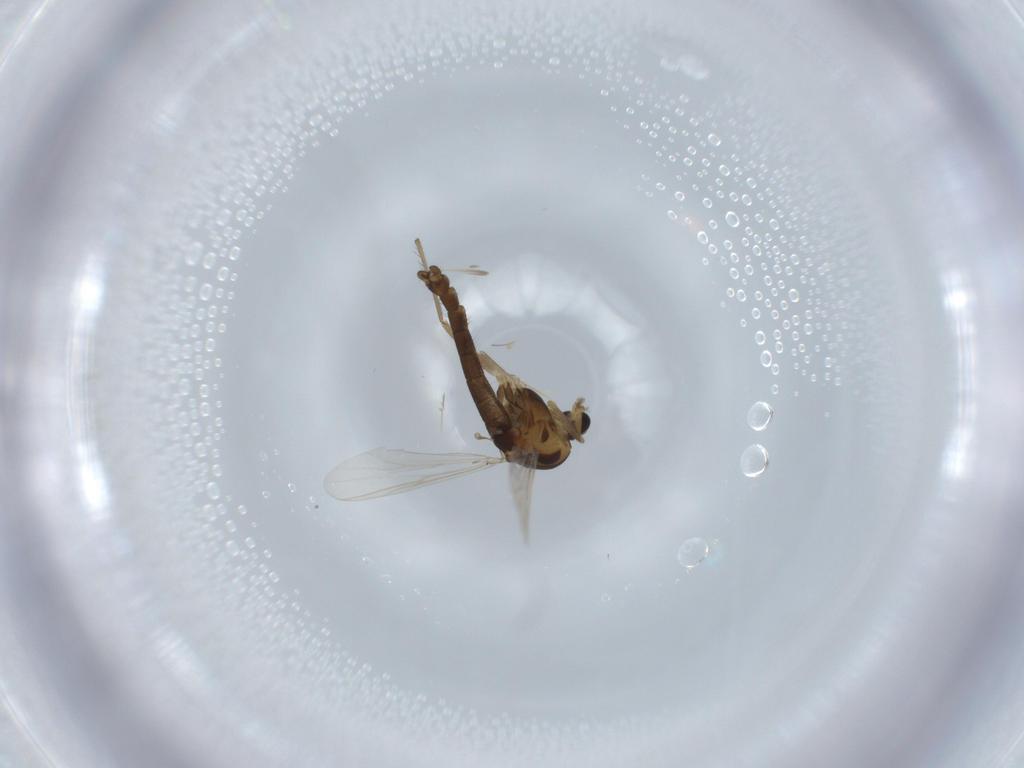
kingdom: Animalia
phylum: Arthropoda
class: Insecta
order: Diptera
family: Chironomidae
